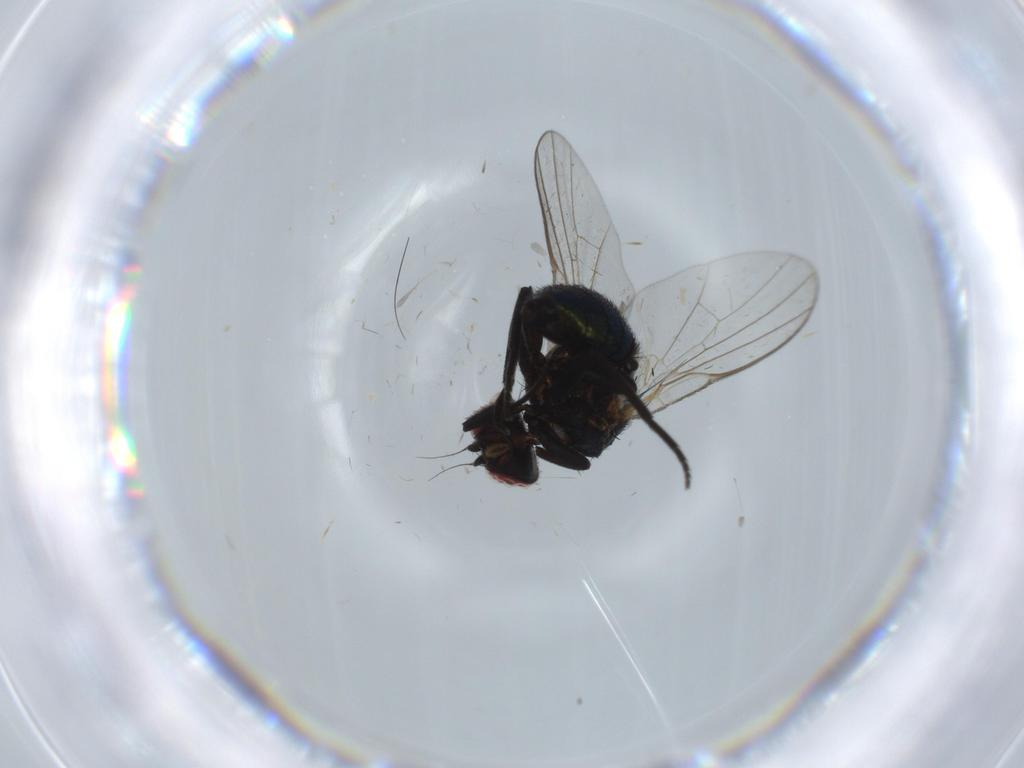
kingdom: Animalia
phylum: Arthropoda
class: Insecta
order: Diptera
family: Agromyzidae
